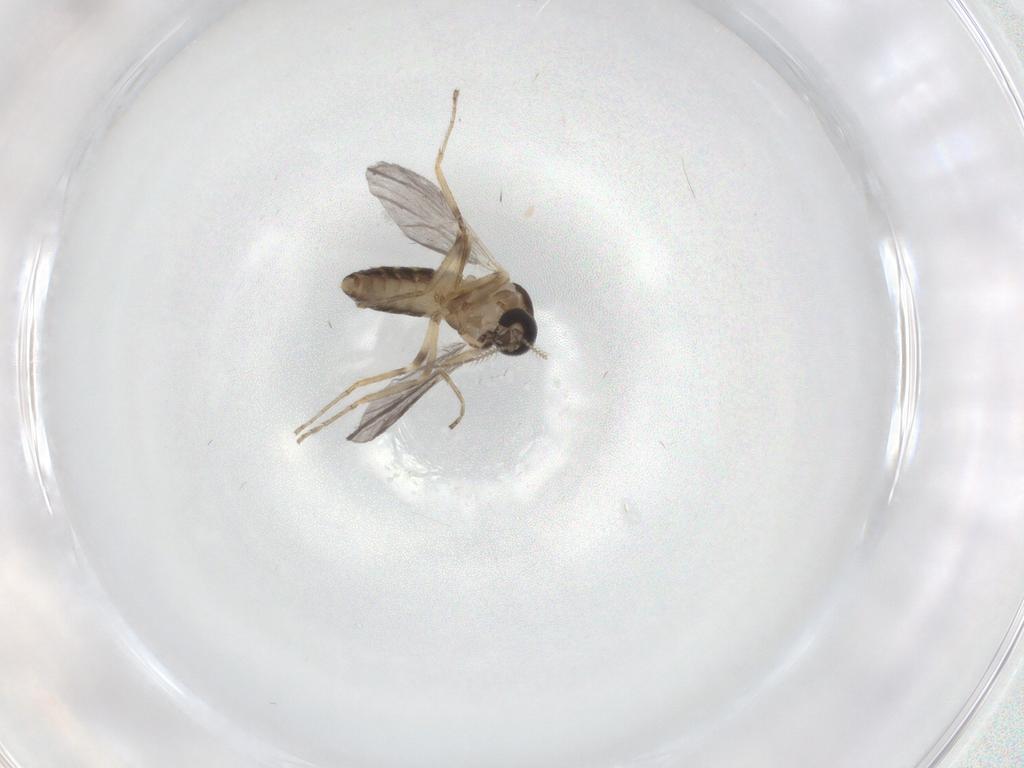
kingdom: Animalia
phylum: Arthropoda
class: Insecta
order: Diptera
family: Ceratopogonidae
